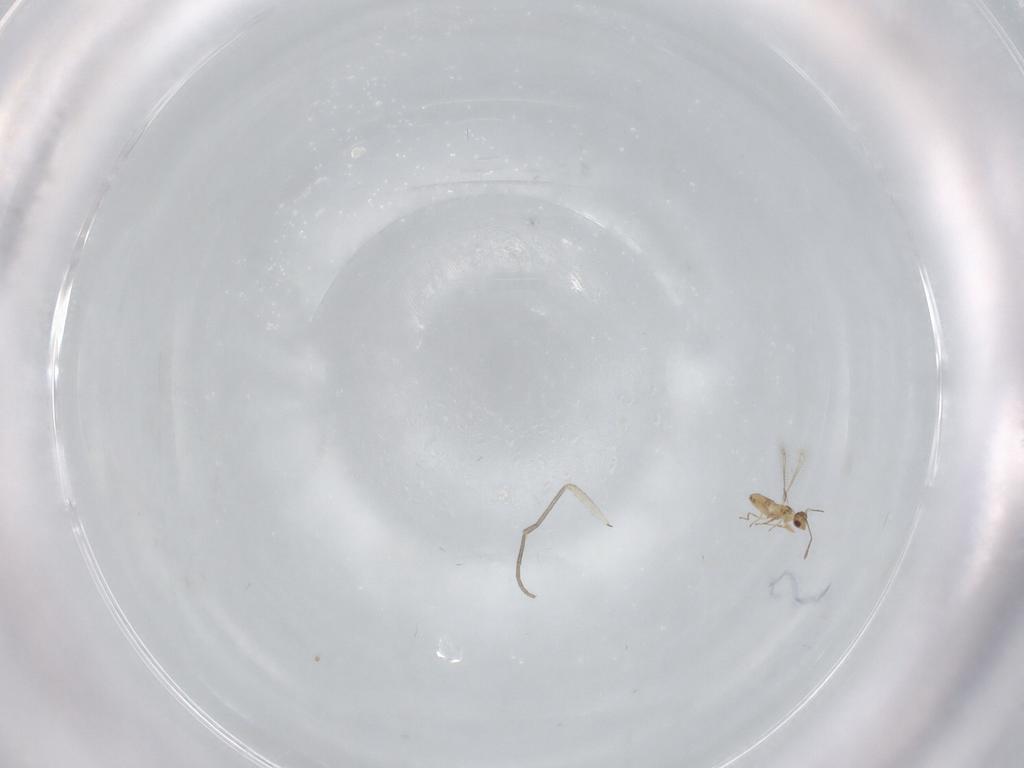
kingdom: Animalia
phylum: Arthropoda
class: Insecta
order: Hymenoptera
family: Mymaridae
